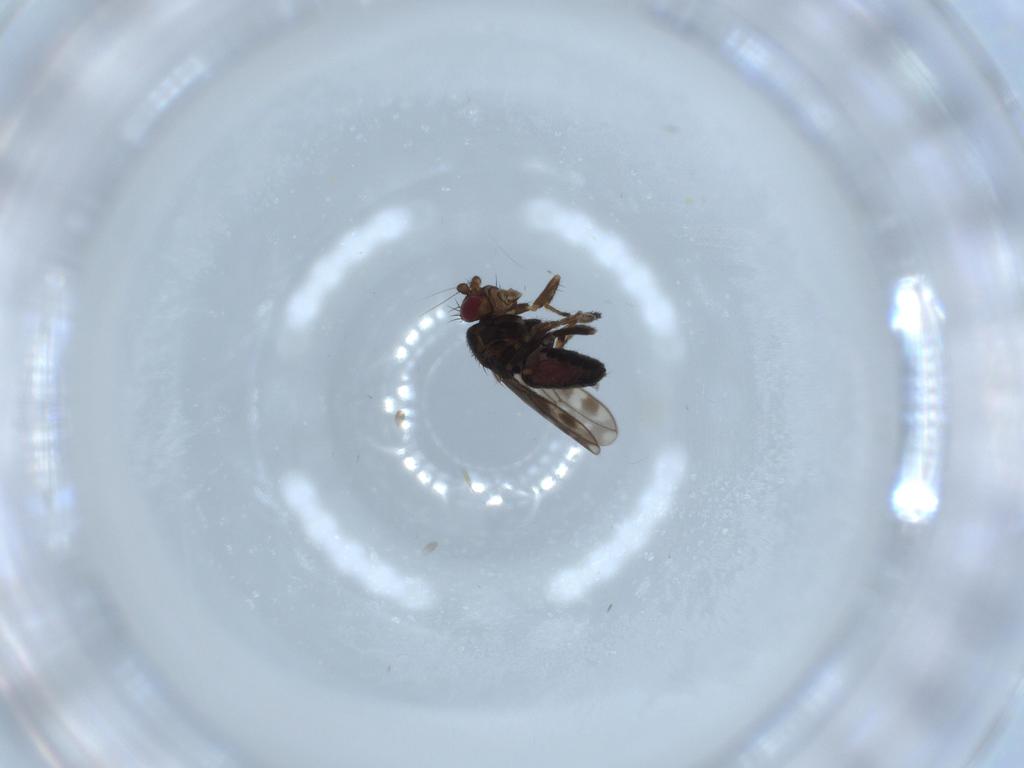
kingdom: Animalia
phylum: Arthropoda
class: Insecta
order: Diptera
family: Sphaeroceridae
